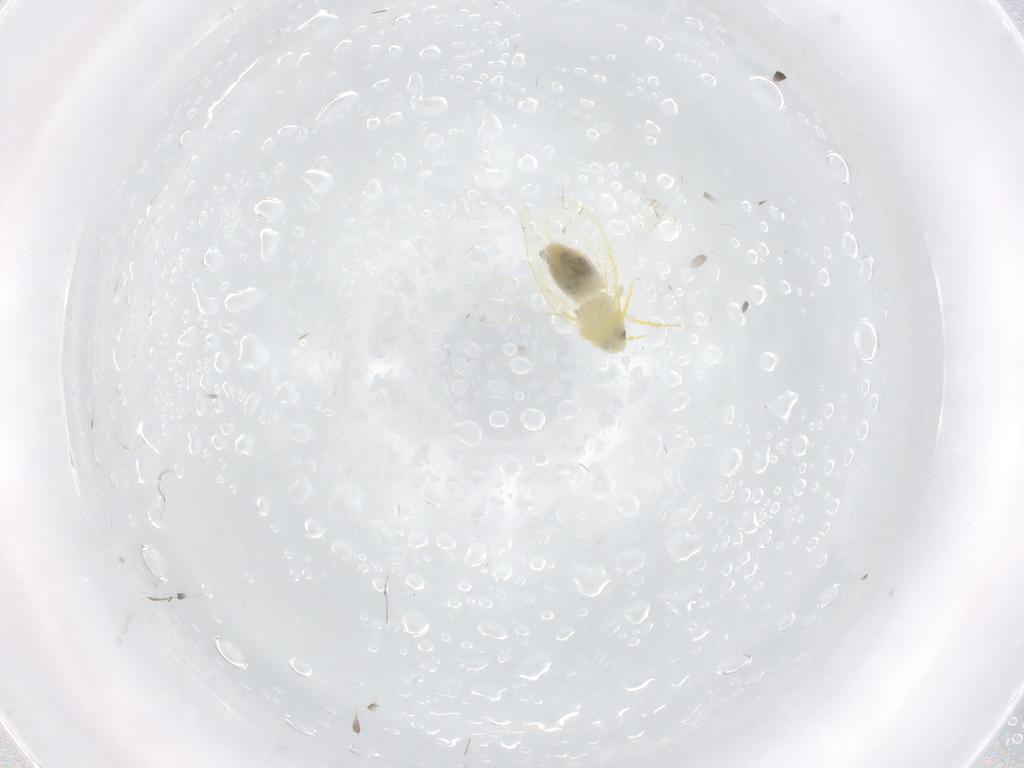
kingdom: Animalia
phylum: Arthropoda
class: Insecta
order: Hemiptera
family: Aleyrodidae
